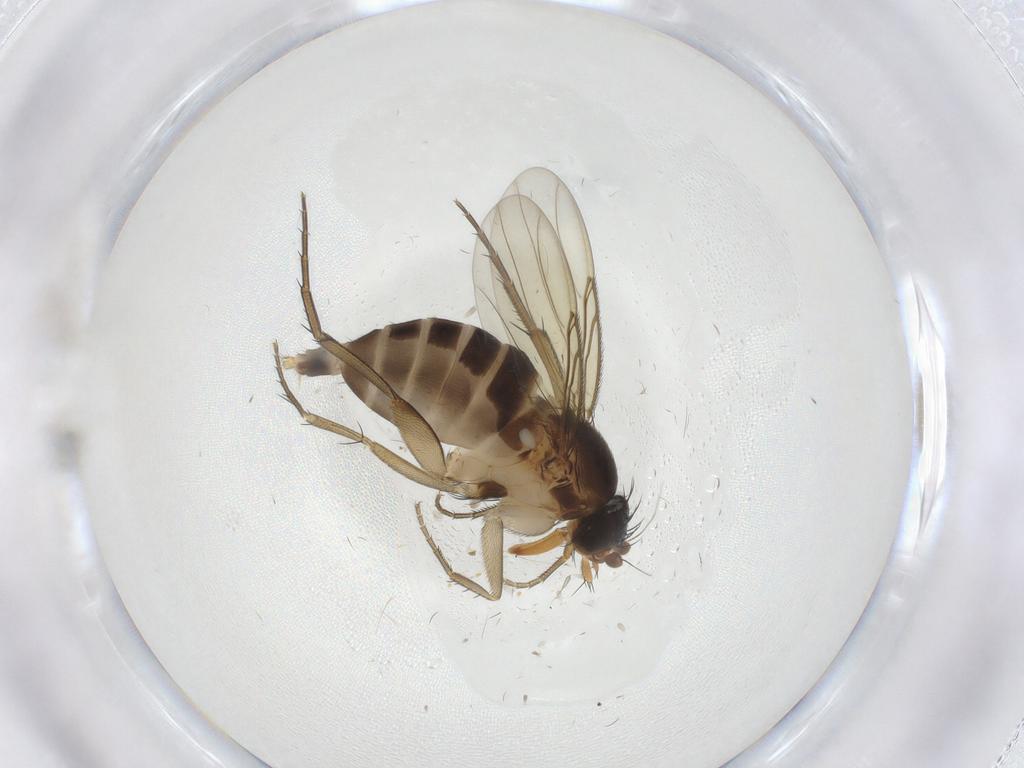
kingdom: Animalia
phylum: Arthropoda
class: Insecta
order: Diptera
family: Phoridae
